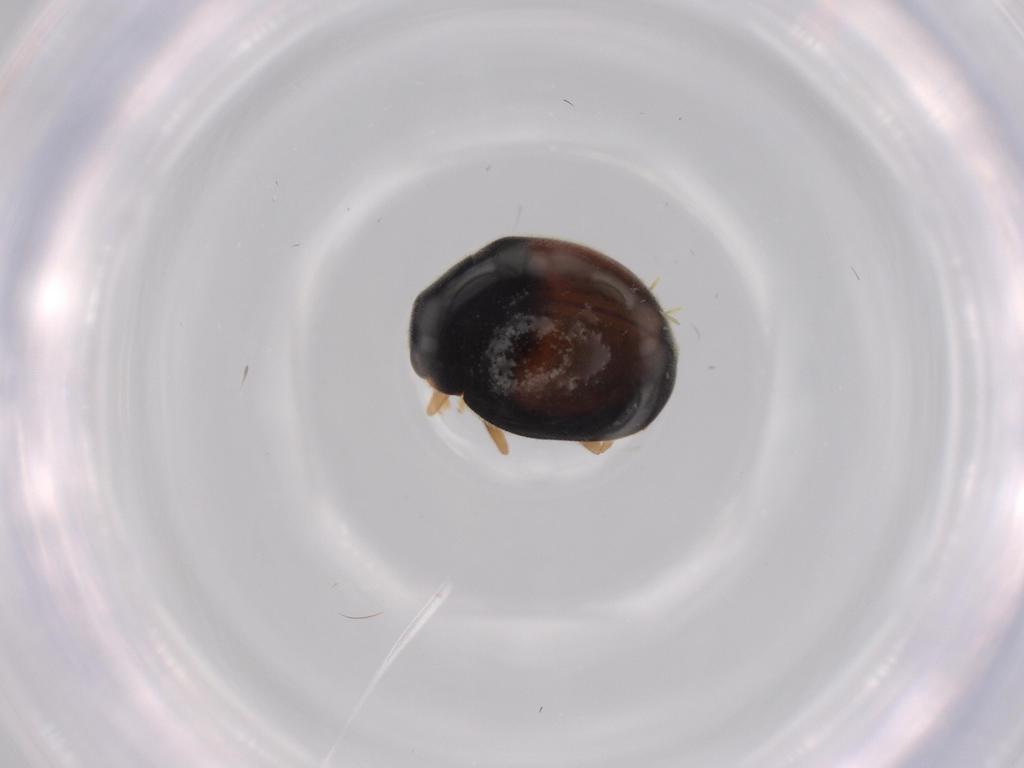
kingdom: Animalia
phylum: Arthropoda
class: Insecta
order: Coleoptera
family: Coccinellidae
